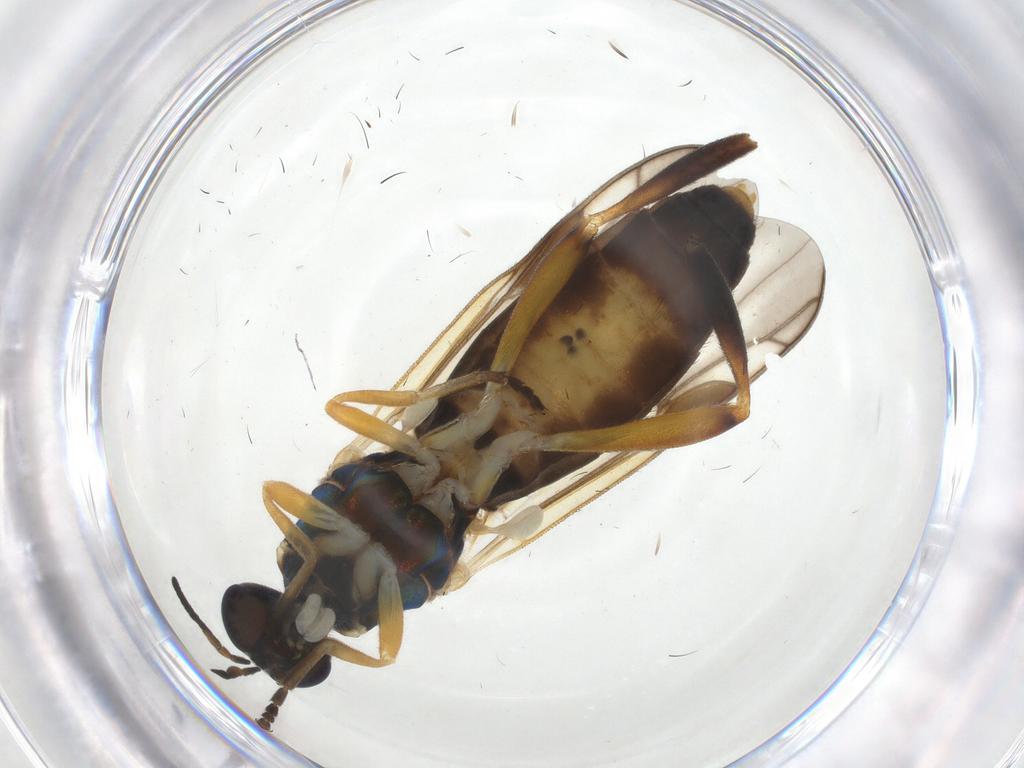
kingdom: Animalia
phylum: Arthropoda
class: Insecta
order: Diptera
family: Stratiomyidae
